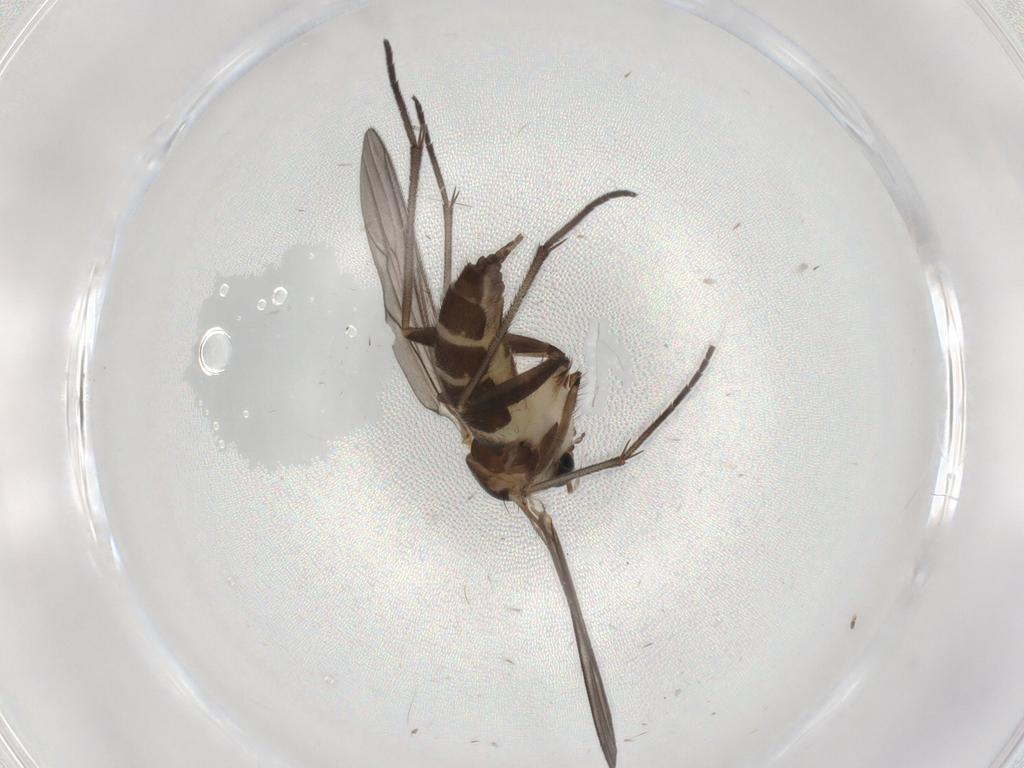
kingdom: Animalia
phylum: Arthropoda
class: Insecta
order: Diptera
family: Sciaridae
